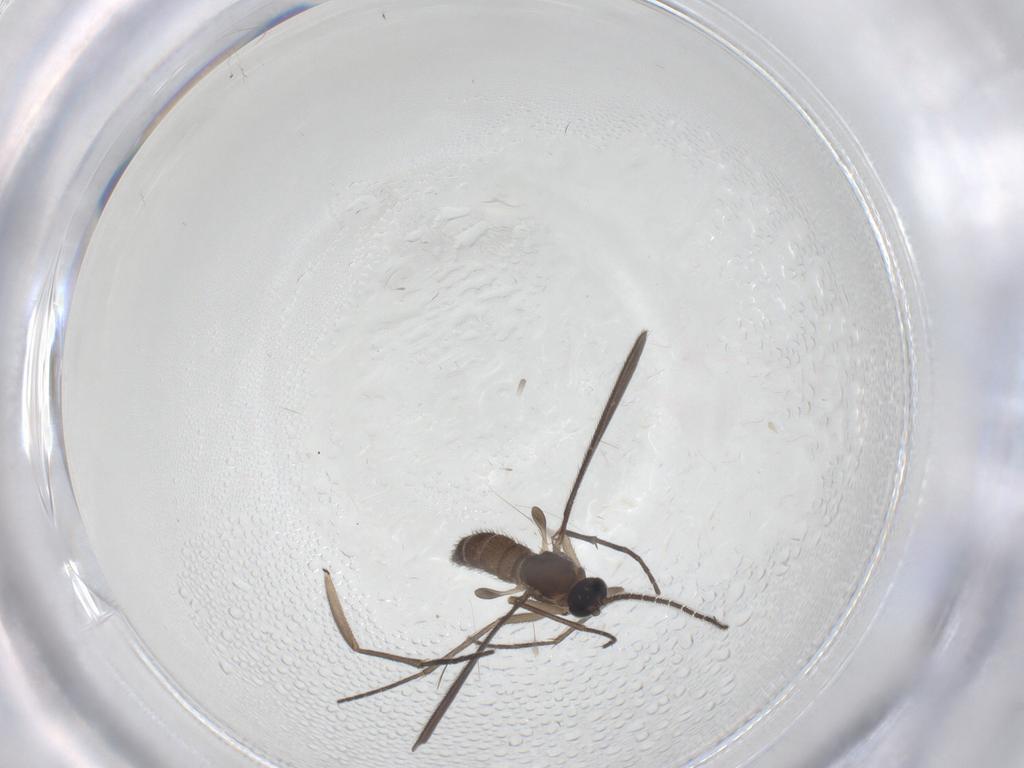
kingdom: Animalia
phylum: Arthropoda
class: Insecta
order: Diptera
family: Sciaridae
